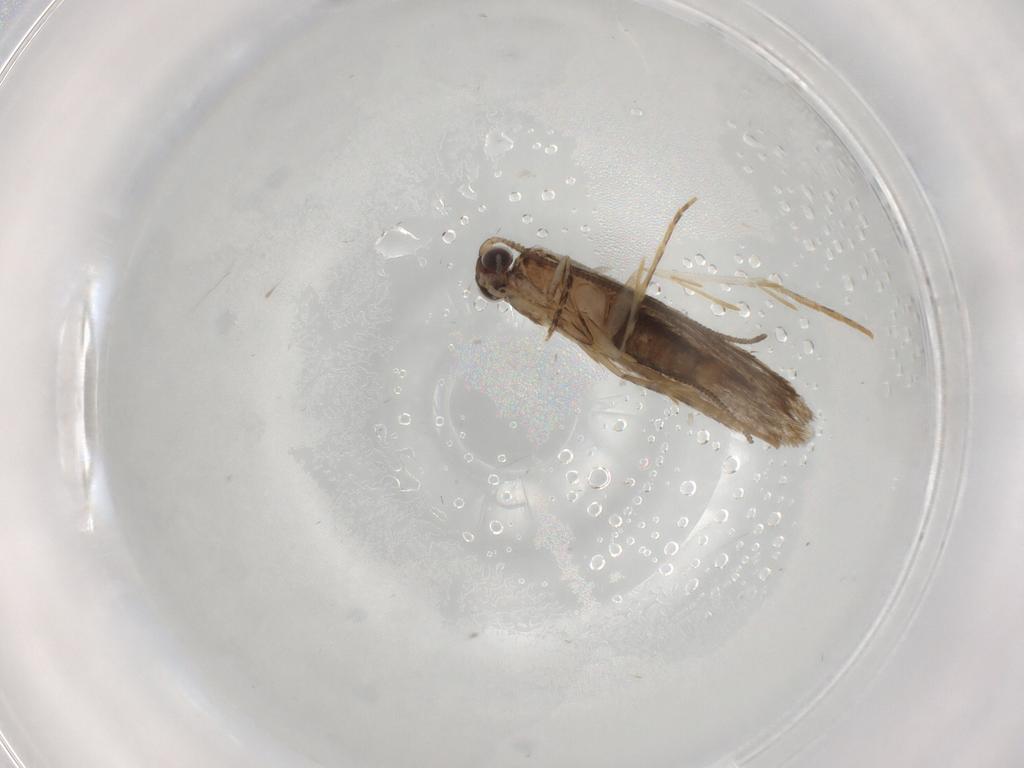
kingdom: Animalia
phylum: Arthropoda
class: Insecta
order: Lepidoptera
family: Tineidae
